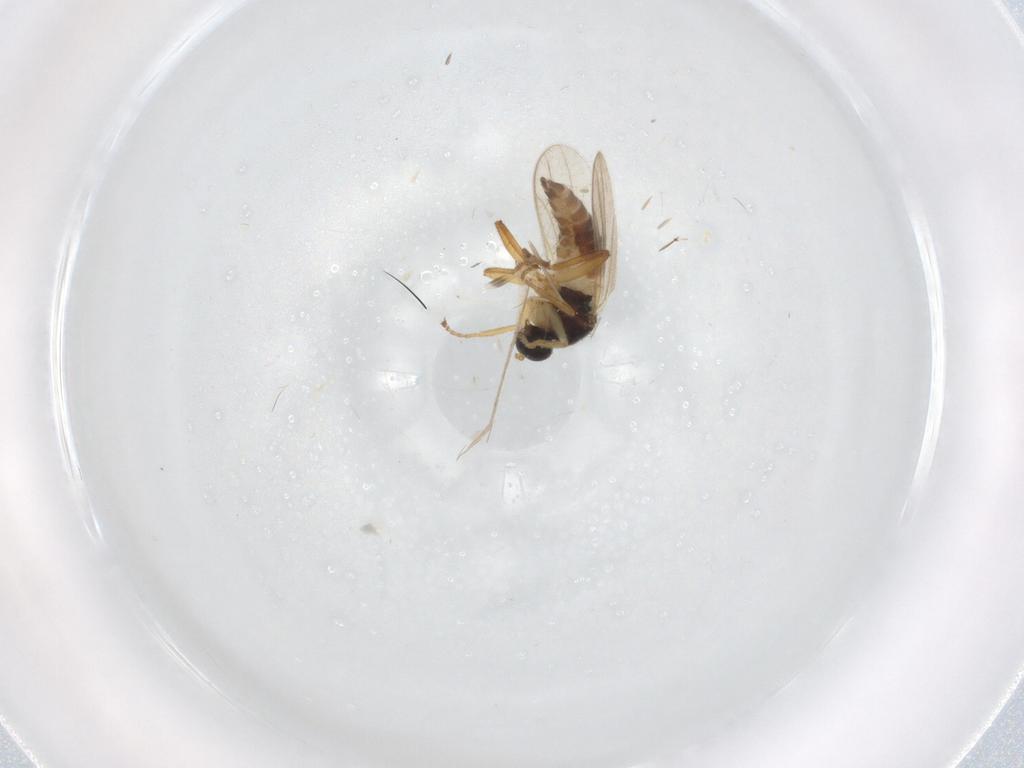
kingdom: Animalia
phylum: Arthropoda
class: Insecta
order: Diptera
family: Hybotidae
